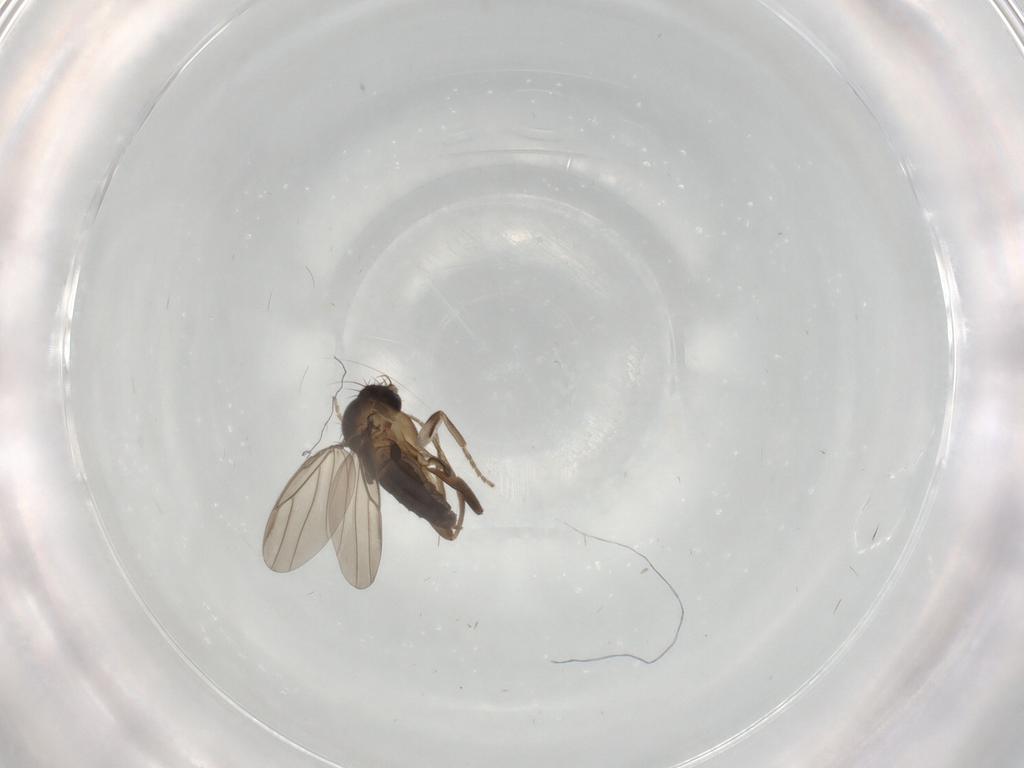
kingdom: Animalia
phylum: Arthropoda
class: Insecta
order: Diptera
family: Chironomidae
